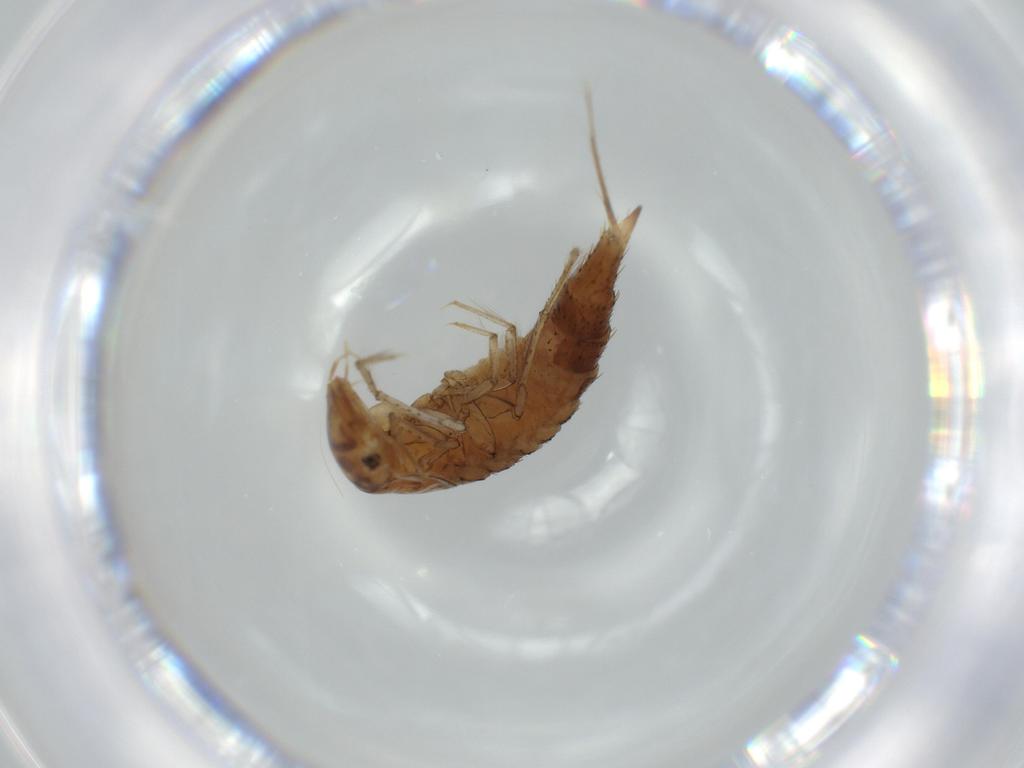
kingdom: Animalia
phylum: Arthropoda
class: Insecta
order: Coleoptera
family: Dytiscidae
